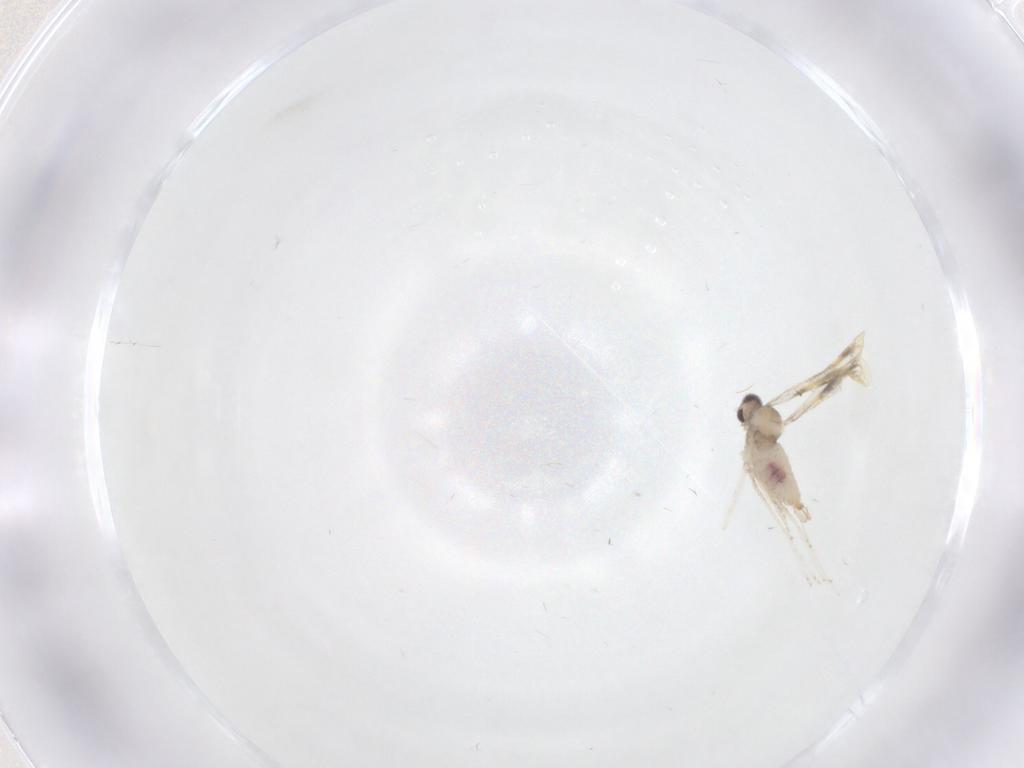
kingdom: Animalia
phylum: Arthropoda
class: Insecta
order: Diptera
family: Cecidomyiidae
